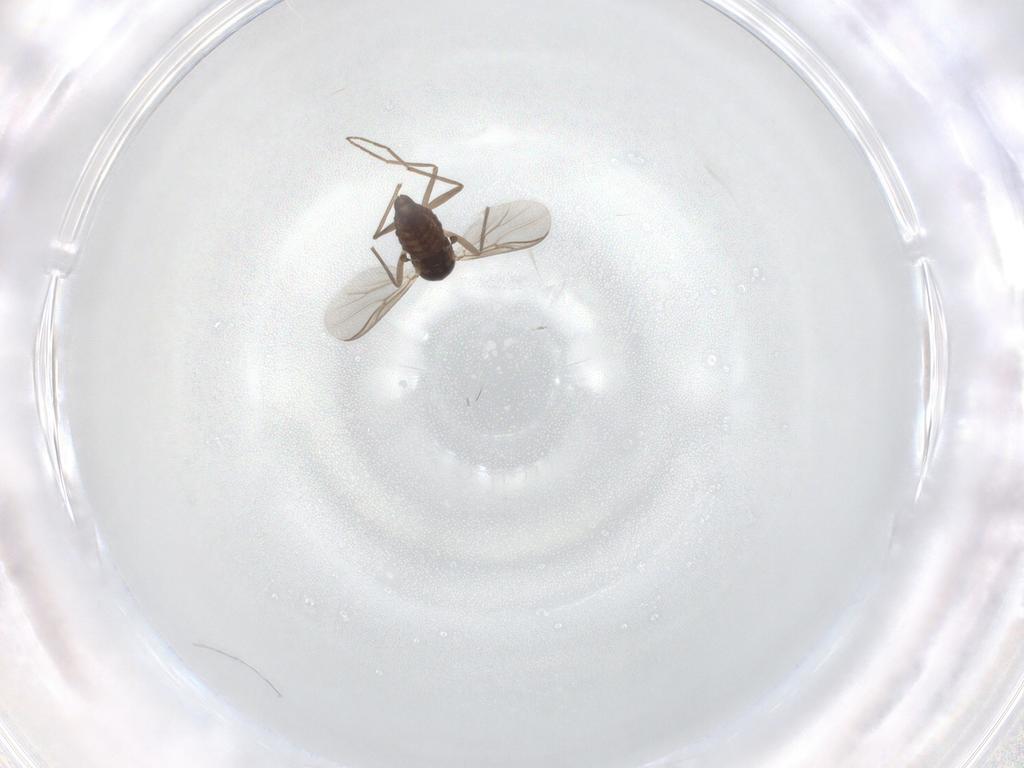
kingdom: Animalia
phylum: Arthropoda
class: Insecta
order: Diptera
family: Chironomidae
